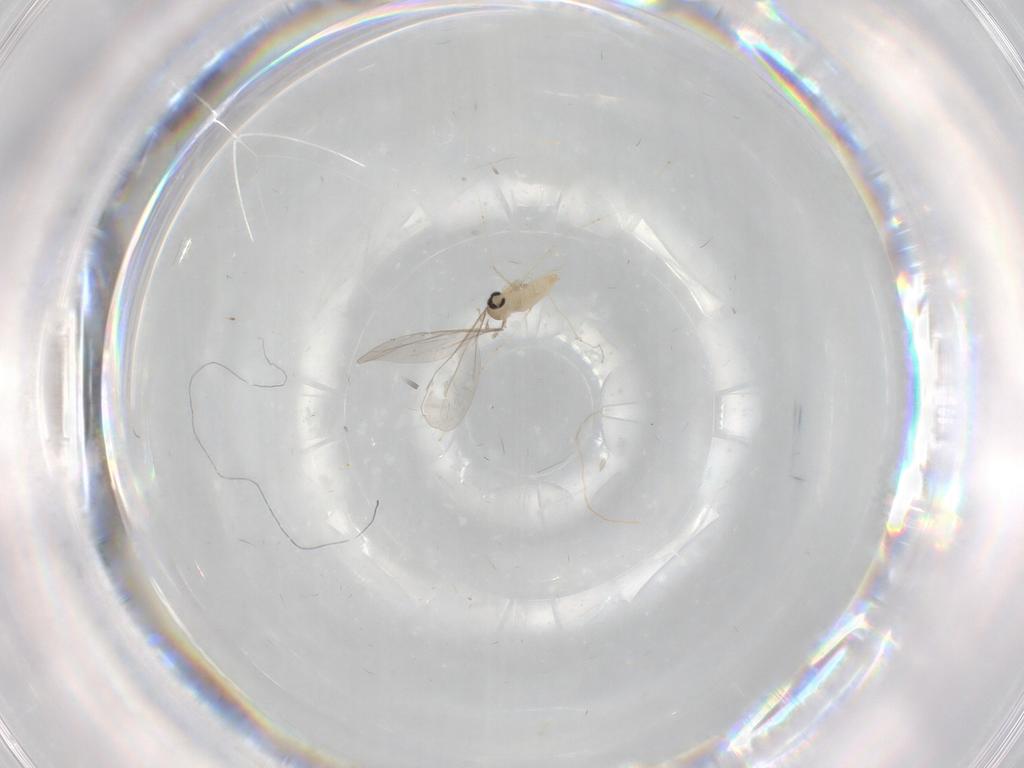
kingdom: Animalia
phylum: Arthropoda
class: Insecta
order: Diptera
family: Cecidomyiidae
